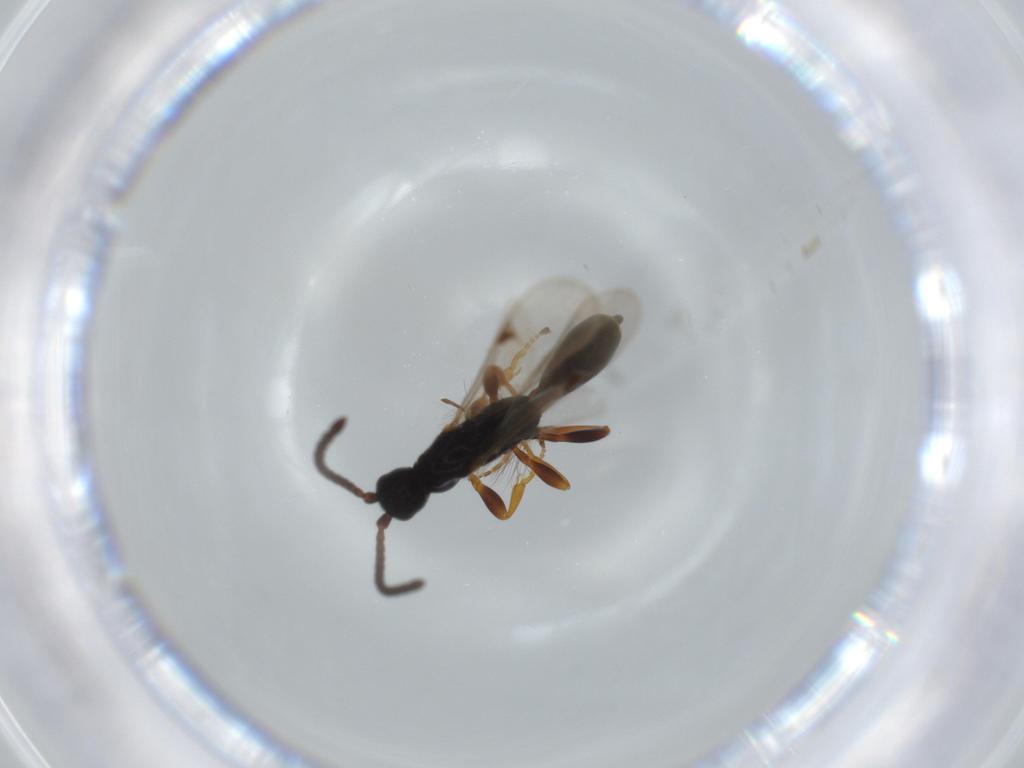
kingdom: Animalia
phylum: Arthropoda
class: Insecta
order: Hymenoptera
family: Proctotrupidae
